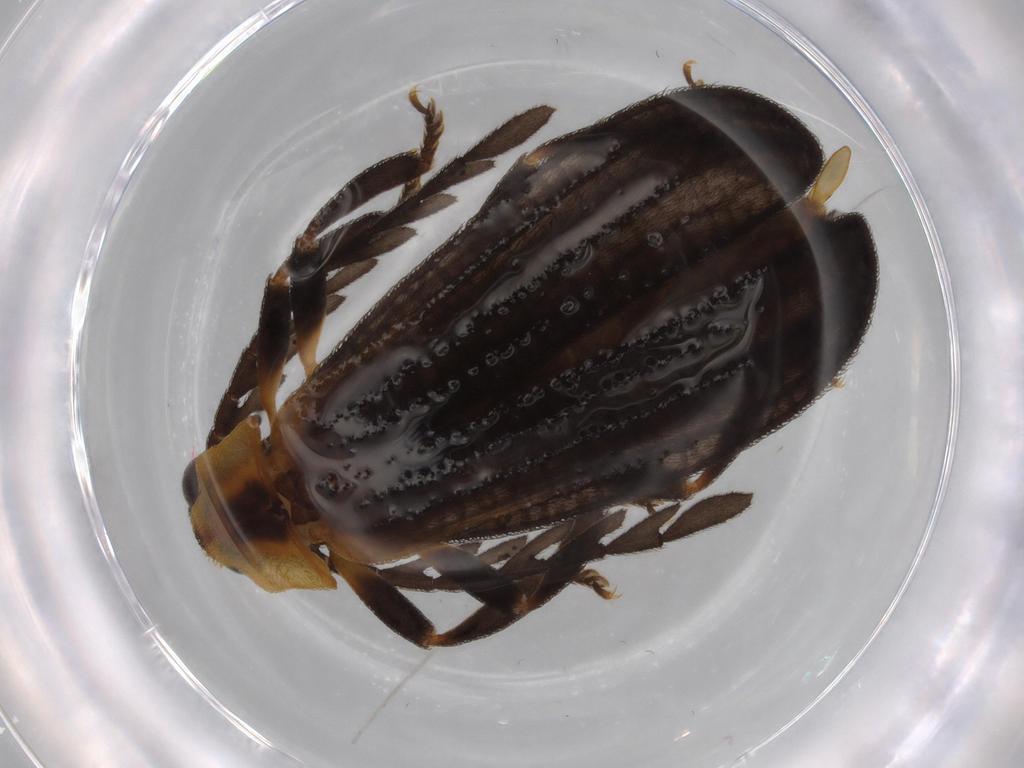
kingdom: Animalia
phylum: Arthropoda
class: Insecta
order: Coleoptera
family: Lycidae
